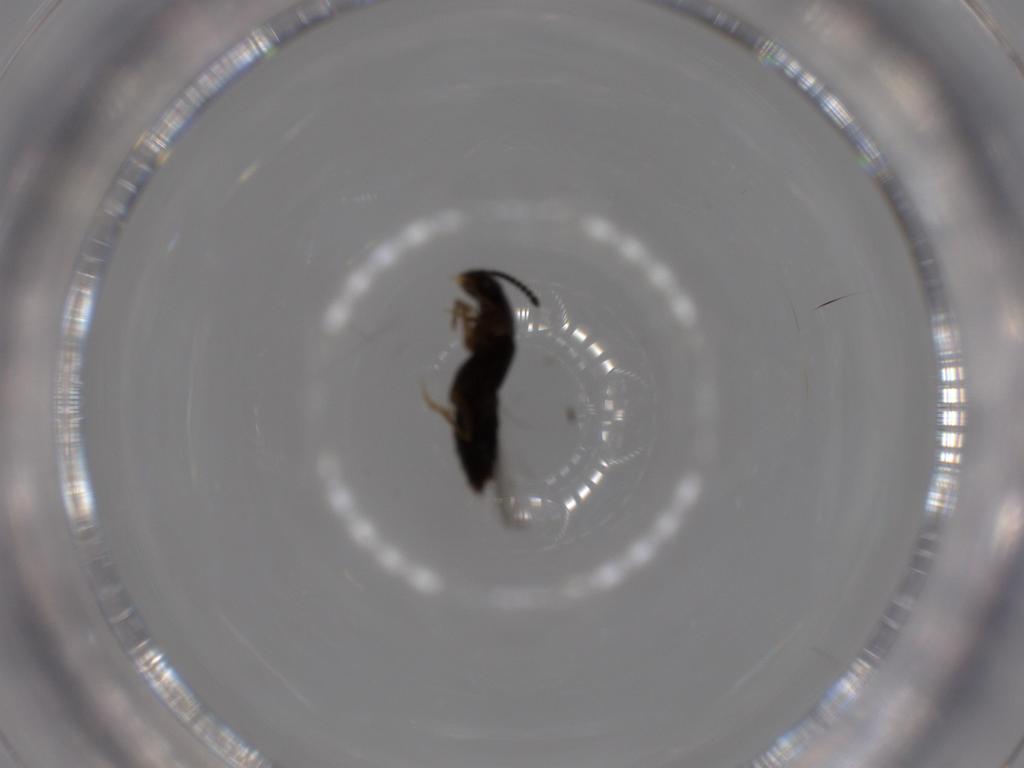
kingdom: Animalia
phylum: Arthropoda
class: Insecta
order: Coleoptera
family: Staphylinidae
